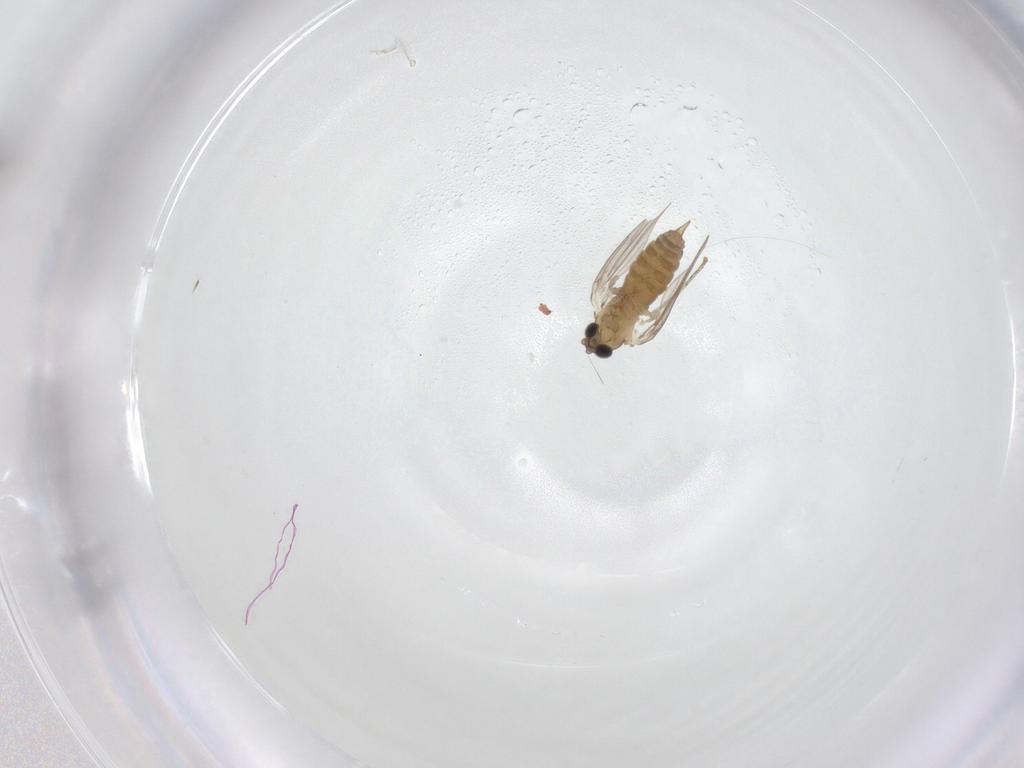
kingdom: Animalia
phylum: Arthropoda
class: Insecta
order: Diptera
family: Psychodidae
